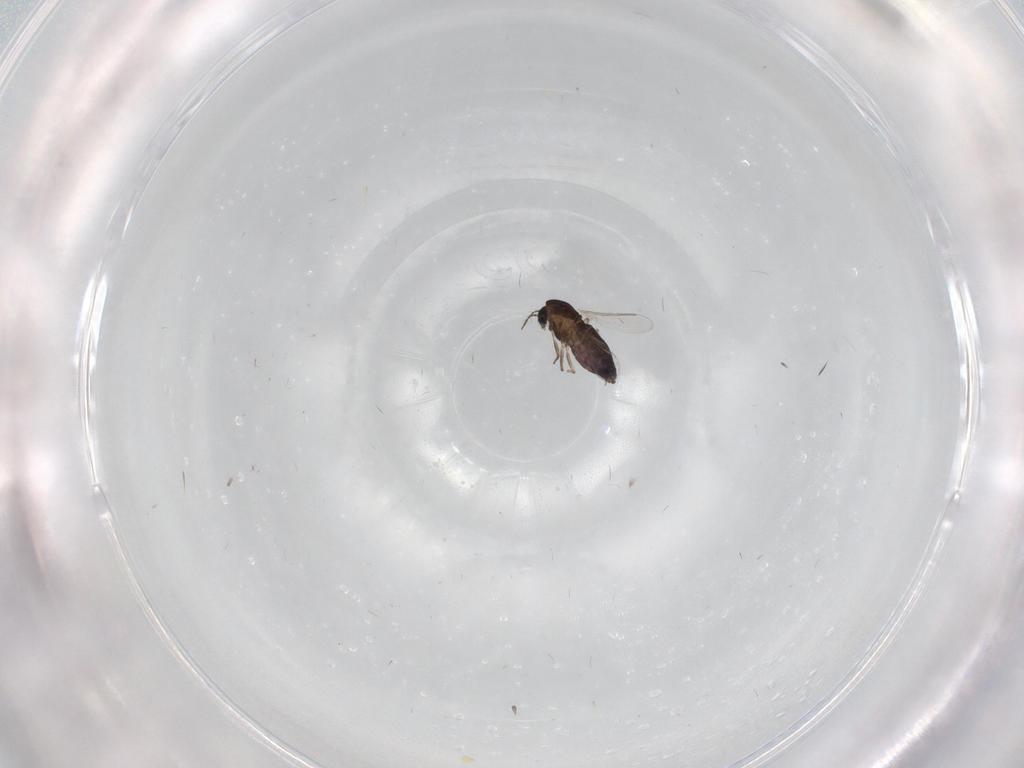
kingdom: Animalia
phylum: Arthropoda
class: Insecta
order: Diptera
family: Chironomidae
